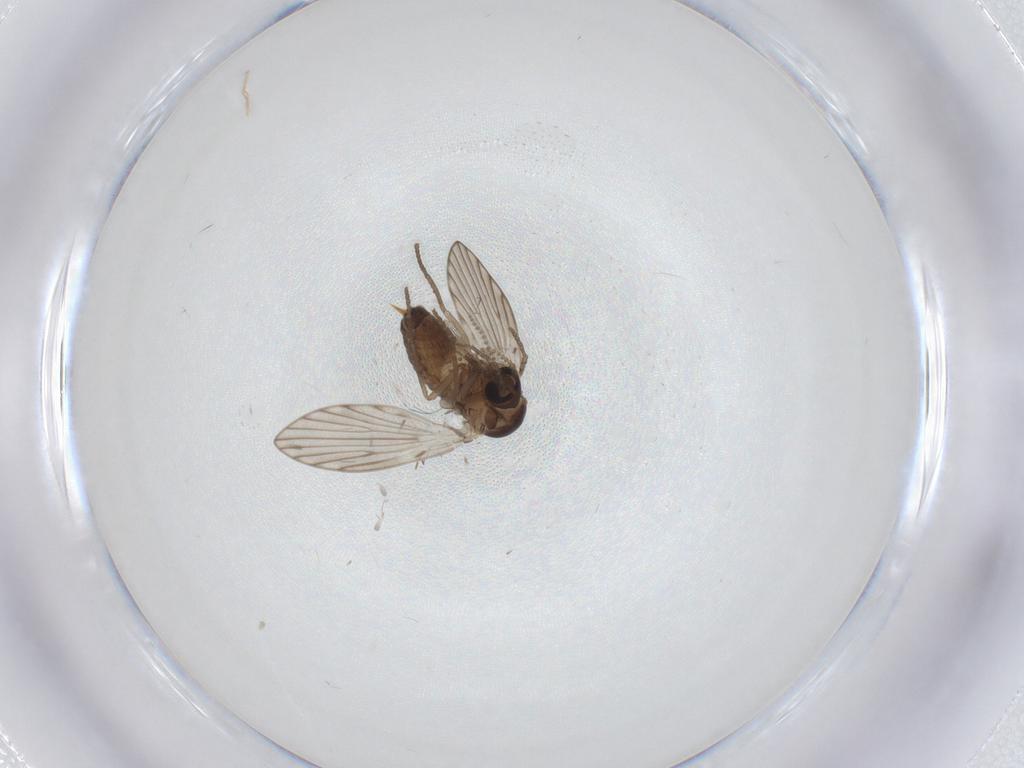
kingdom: Animalia
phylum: Arthropoda
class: Insecta
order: Diptera
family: Psychodidae
